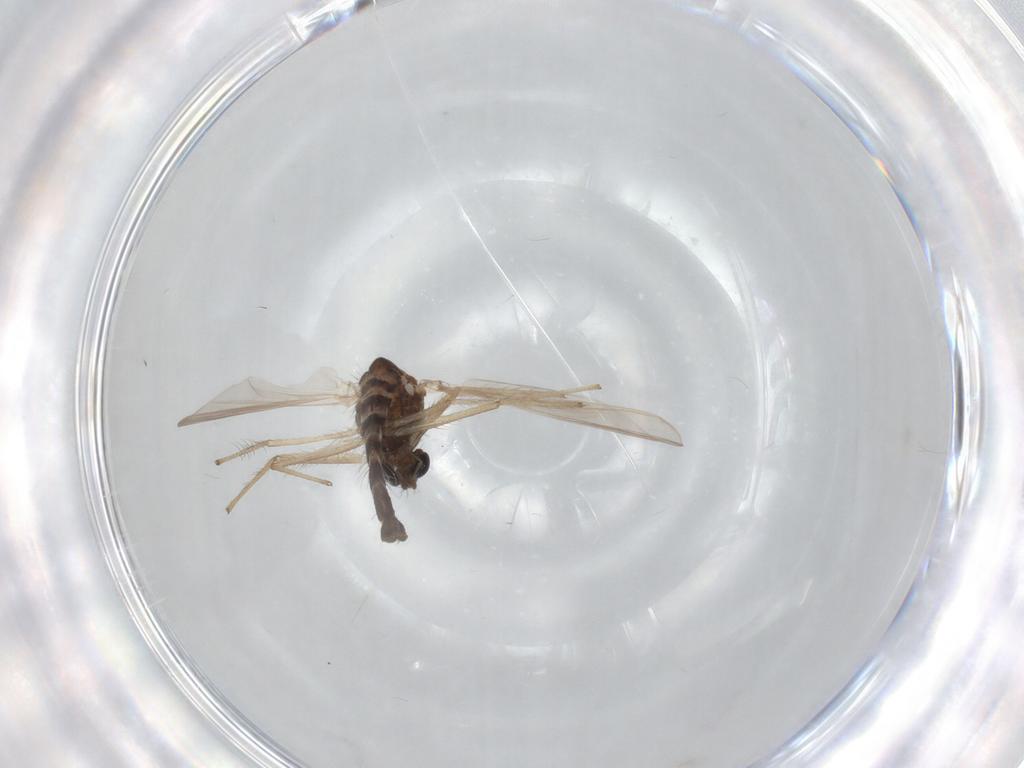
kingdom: Animalia
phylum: Arthropoda
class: Insecta
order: Diptera
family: Chironomidae
